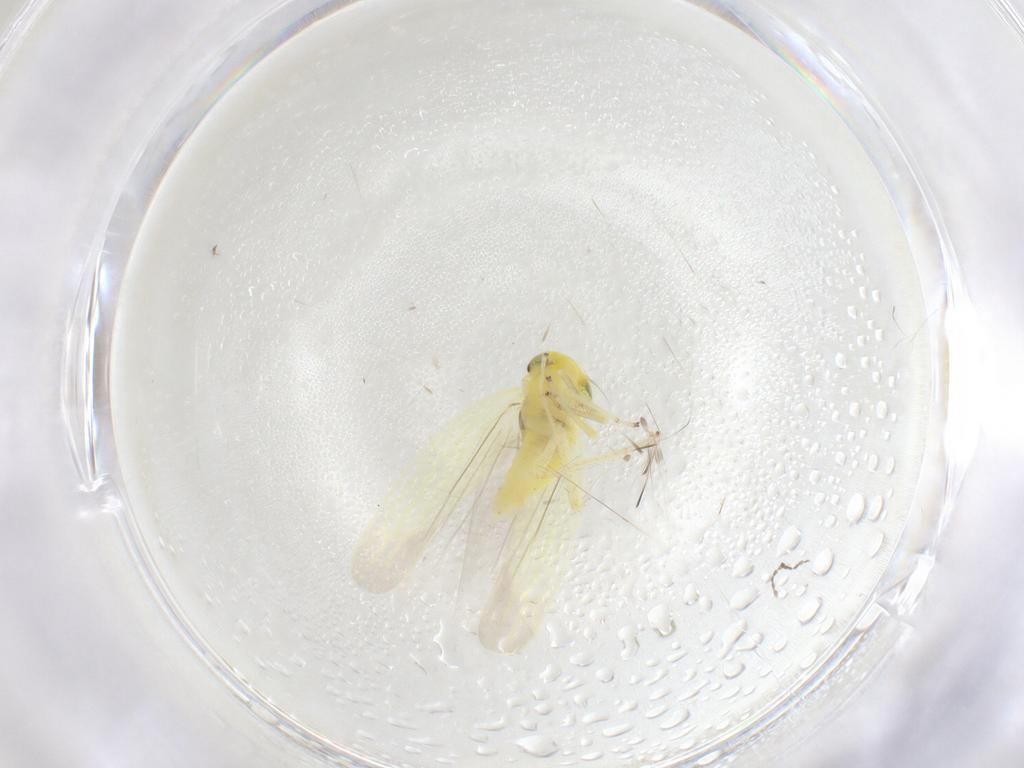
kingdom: Animalia
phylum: Arthropoda
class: Insecta
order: Hemiptera
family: Cicadellidae
